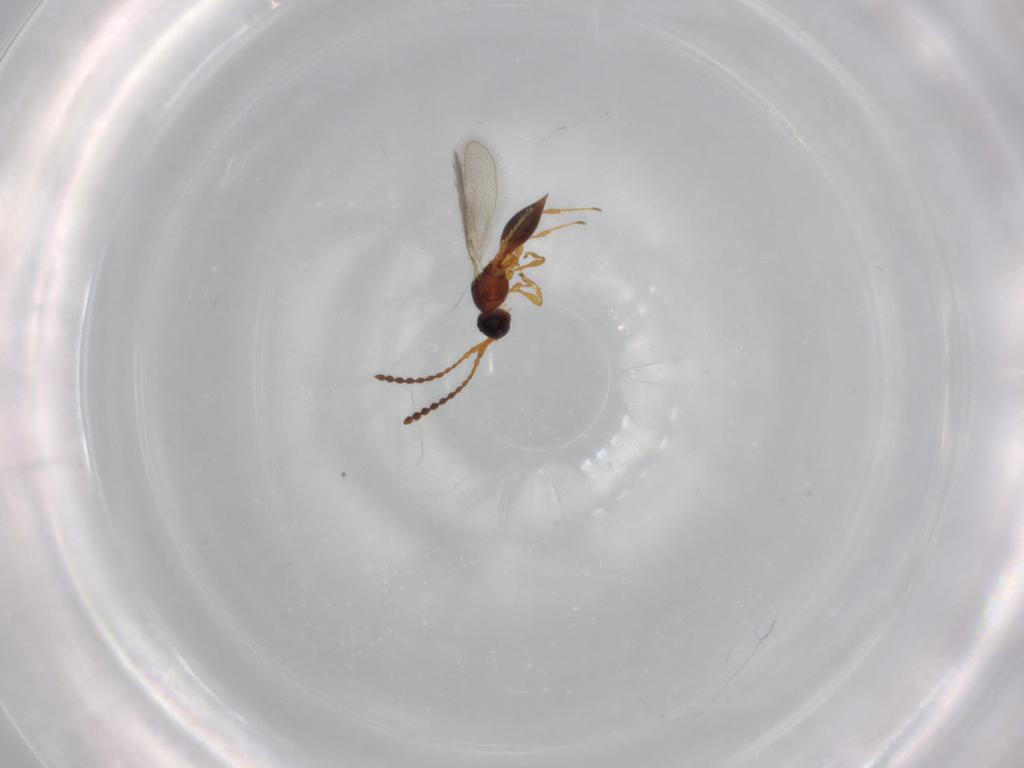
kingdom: Animalia
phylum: Arthropoda
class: Insecta
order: Hymenoptera
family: Diapriidae
